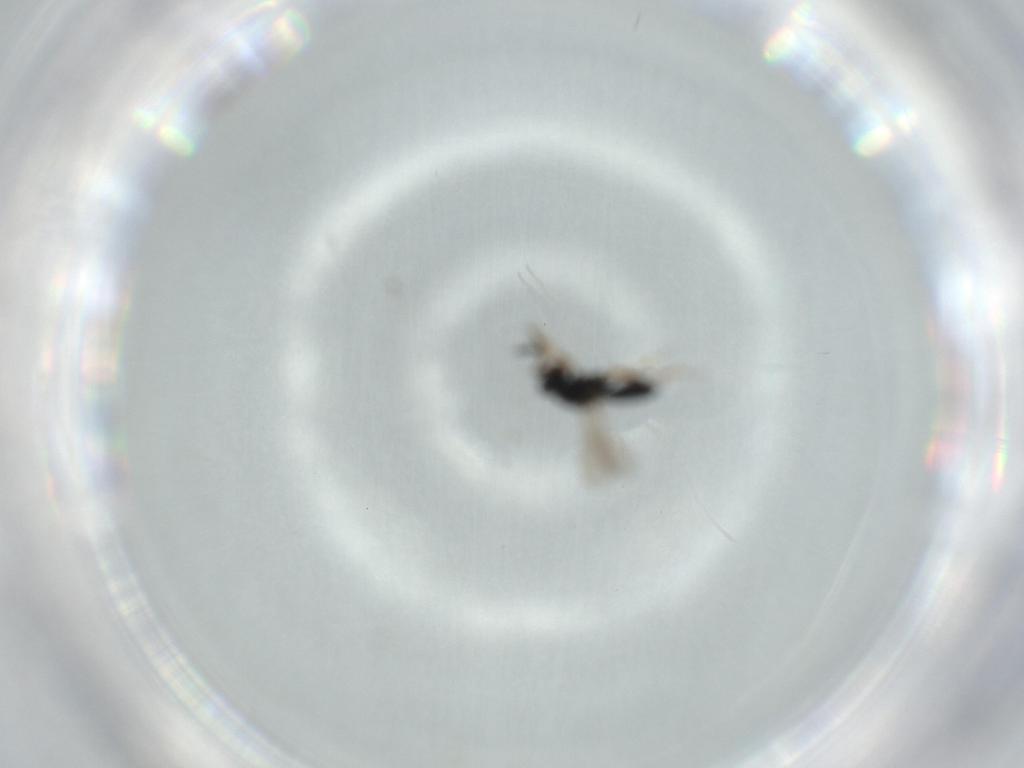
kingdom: Animalia
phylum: Arthropoda
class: Insecta
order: Hymenoptera
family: Scelionidae
